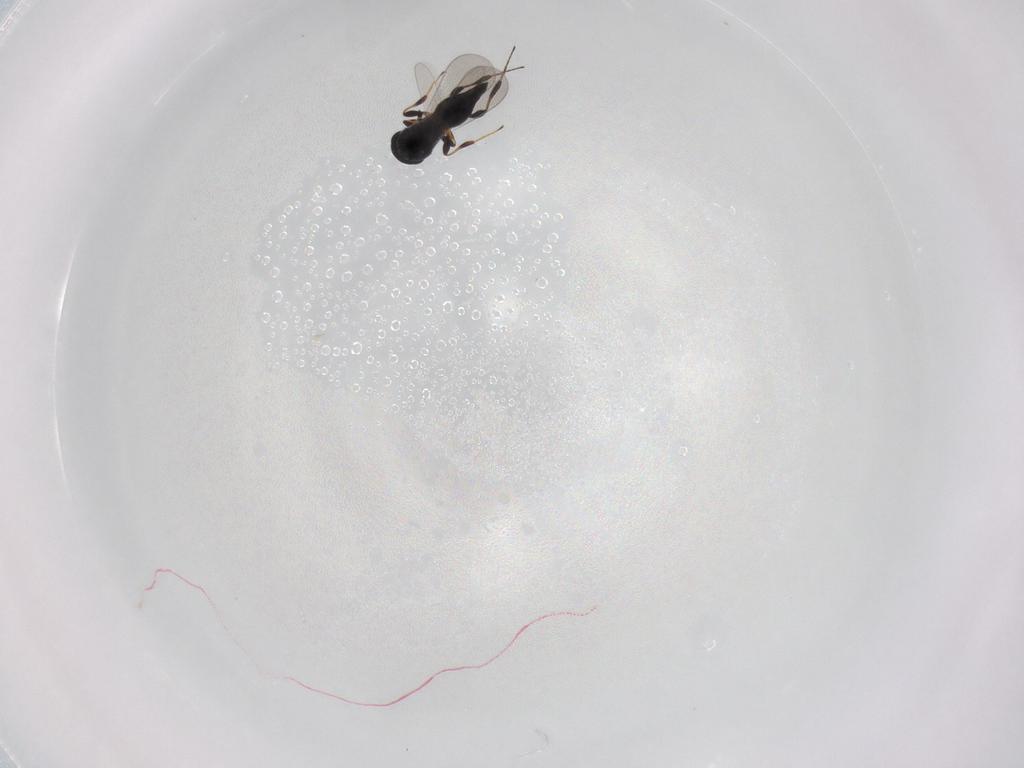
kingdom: Animalia
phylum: Arthropoda
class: Insecta
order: Hymenoptera
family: Platygastridae
